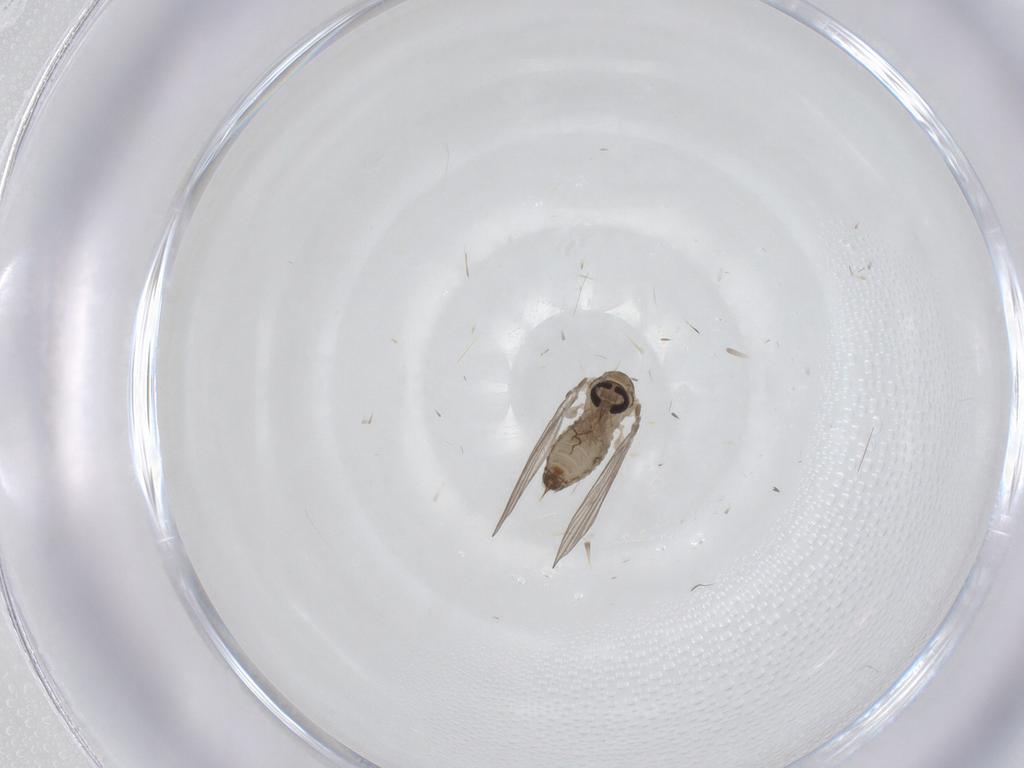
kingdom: Animalia
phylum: Arthropoda
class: Insecta
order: Diptera
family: Psychodidae
